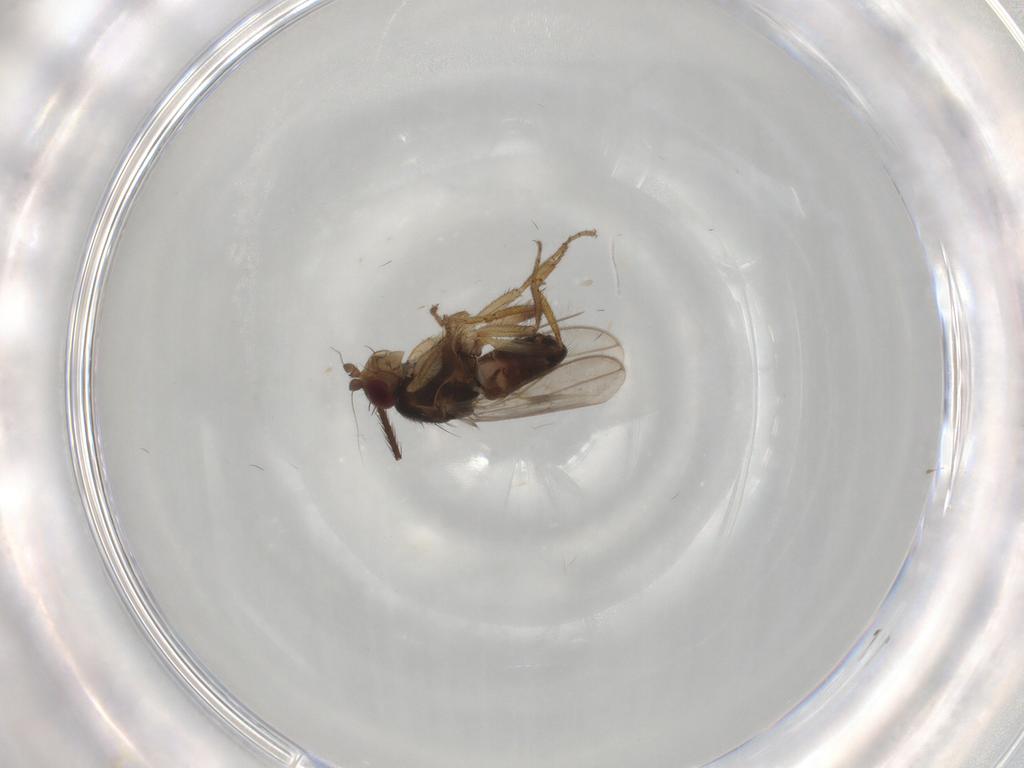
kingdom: Animalia
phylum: Arthropoda
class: Insecta
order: Diptera
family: Sphaeroceridae
